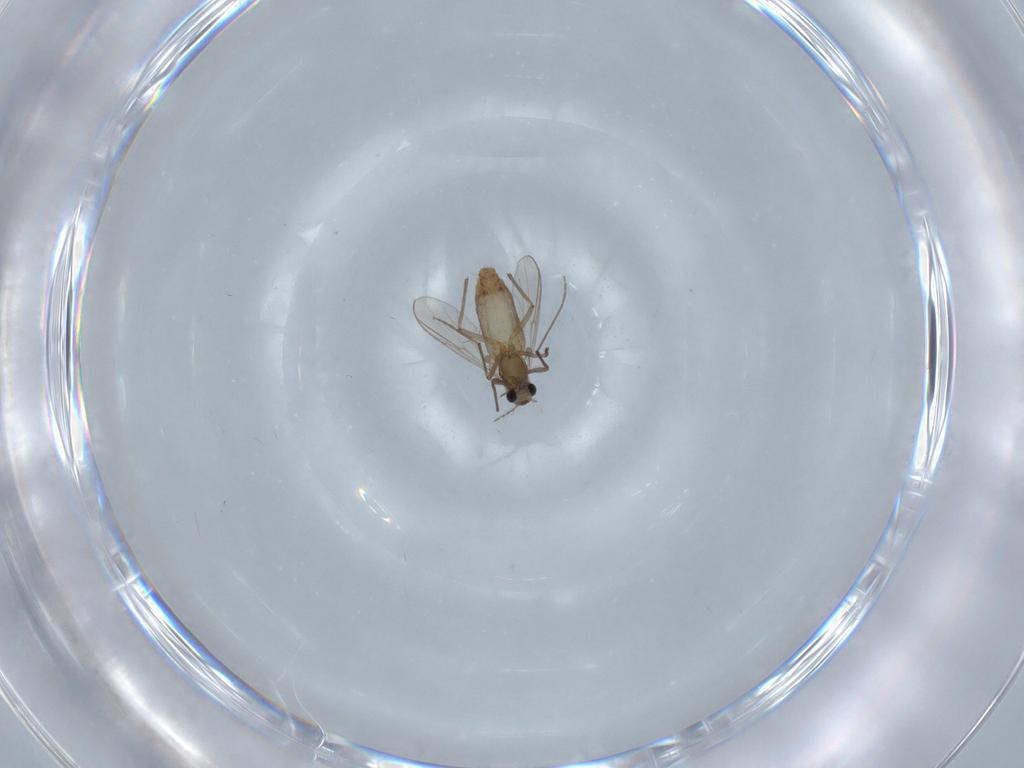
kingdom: Animalia
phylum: Arthropoda
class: Insecta
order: Diptera
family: Chironomidae
